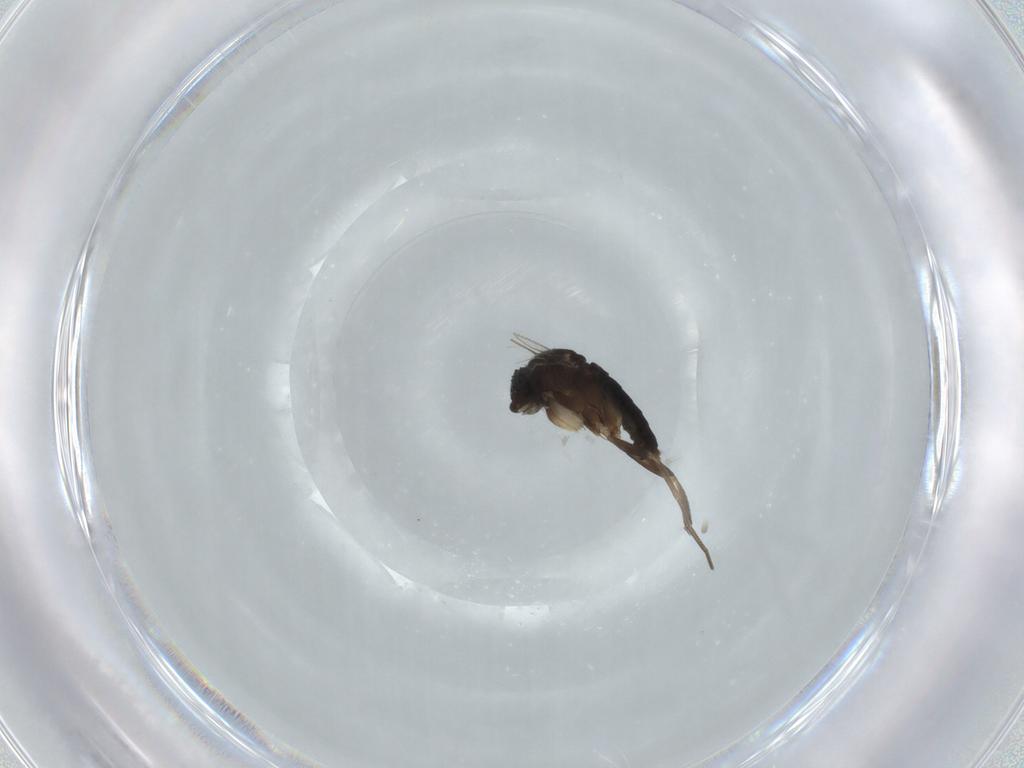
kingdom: Animalia
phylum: Arthropoda
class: Insecta
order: Diptera
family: Phoridae
